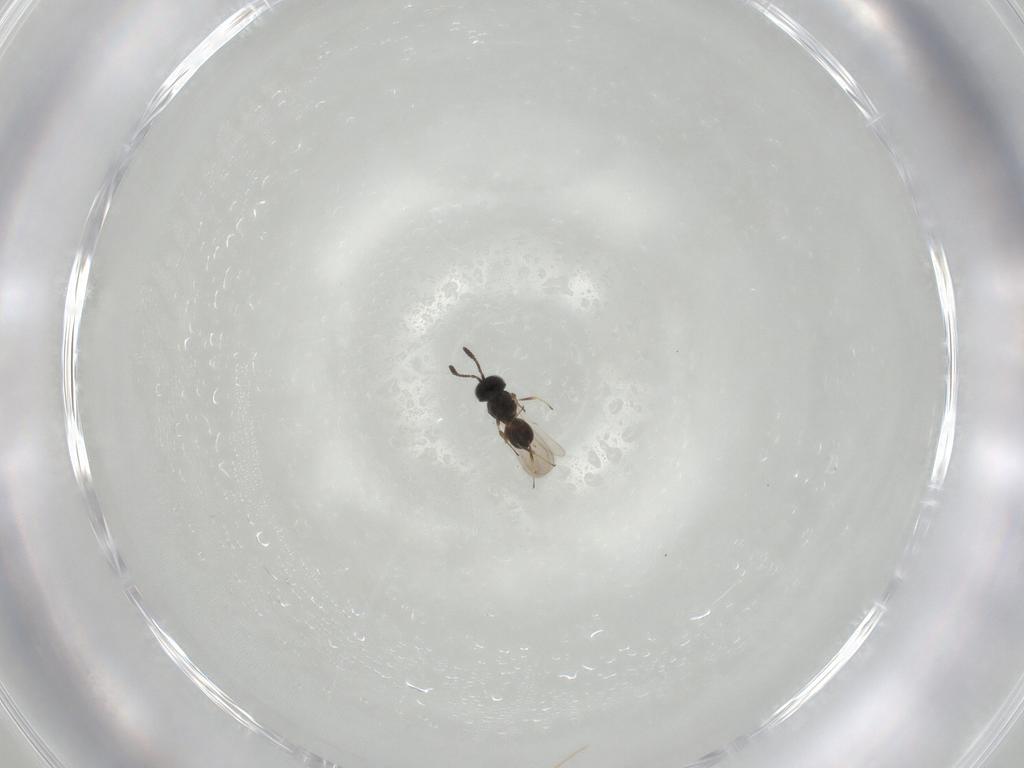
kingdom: Animalia
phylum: Arthropoda
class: Insecta
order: Hymenoptera
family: Scelionidae
